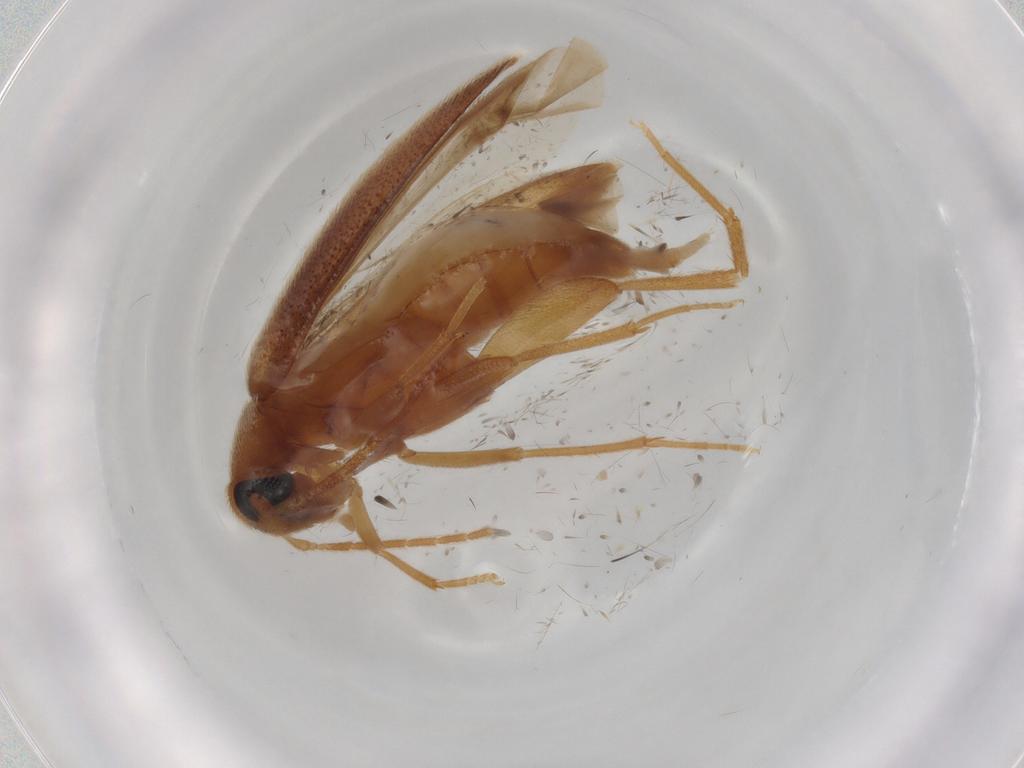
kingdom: Animalia
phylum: Arthropoda
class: Insecta
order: Coleoptera
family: Scraptiidae
